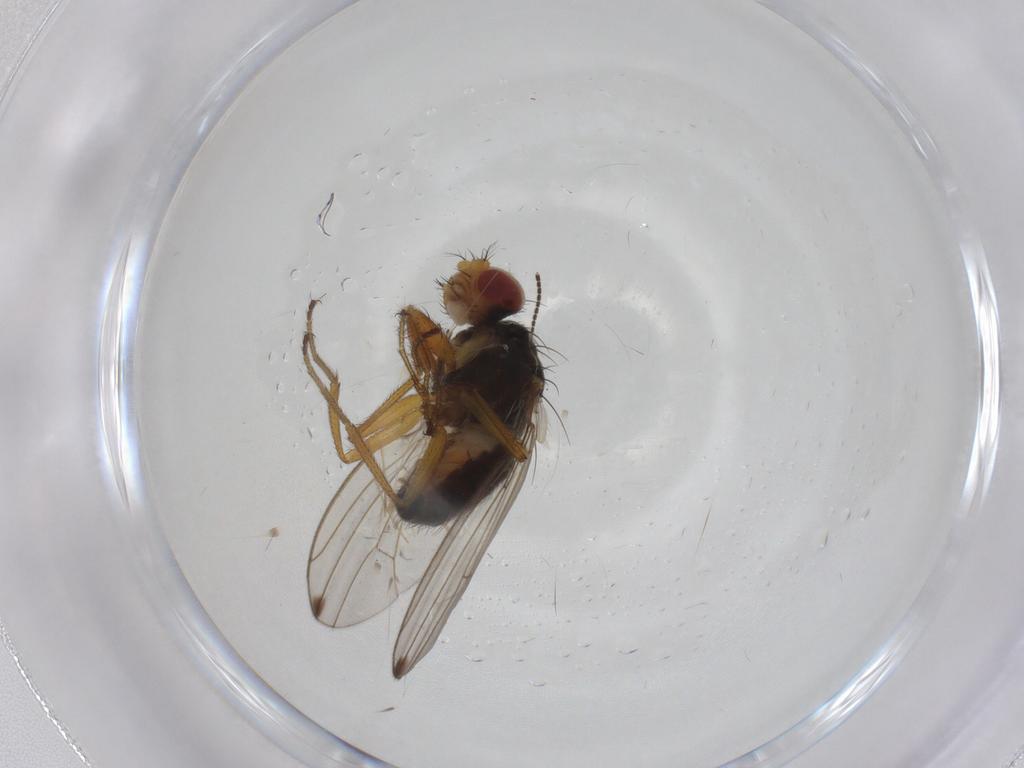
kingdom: Animalia
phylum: Arthropoda
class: Insecta
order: Diptera
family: Drosophilidae
